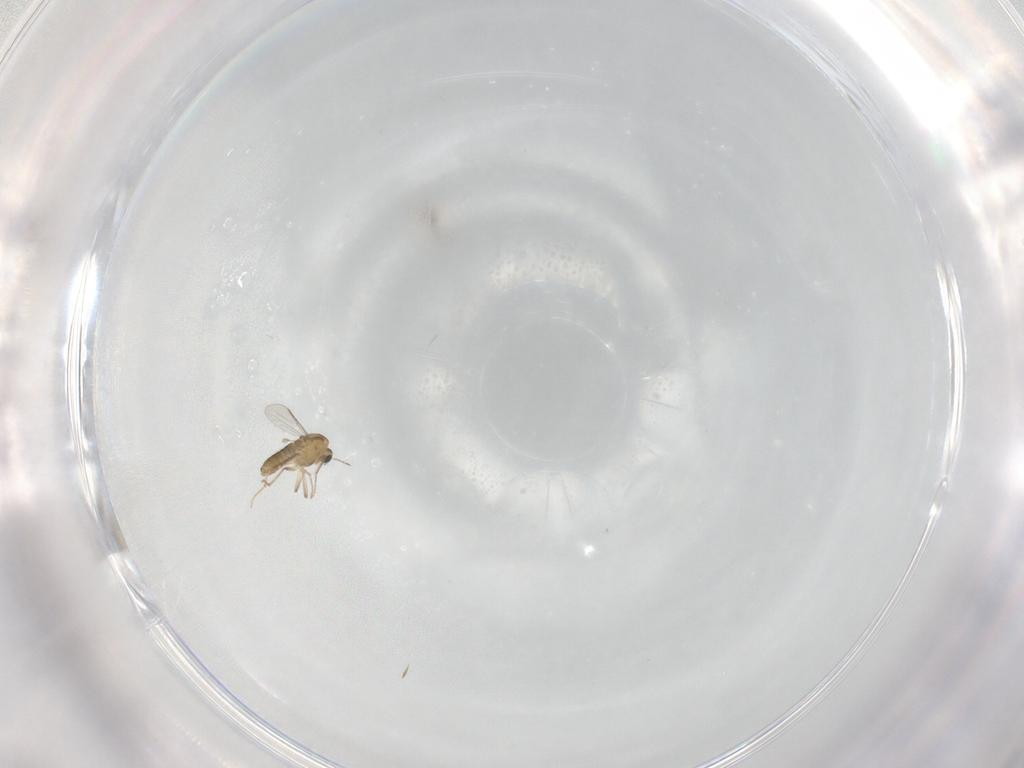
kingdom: Animalia
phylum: Arthropoda
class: Insecta
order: Diptera
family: Chironomidae
